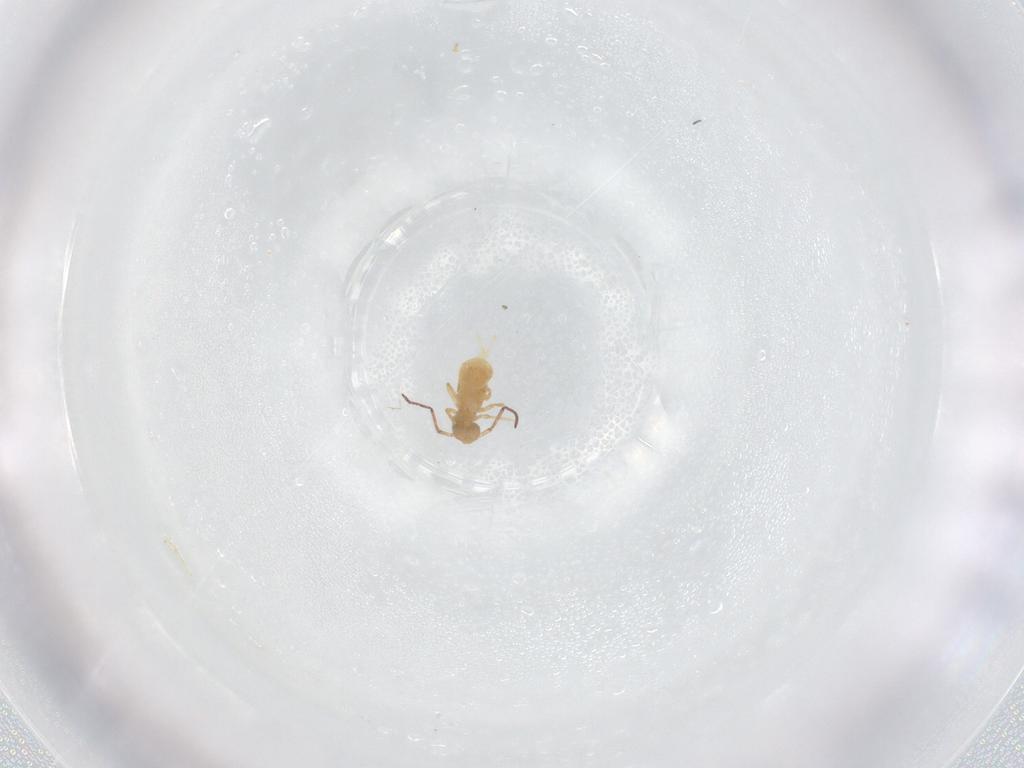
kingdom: Animalia
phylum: Arthropoda
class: Collembola
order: Symphypleona
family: Bourletiellidae
